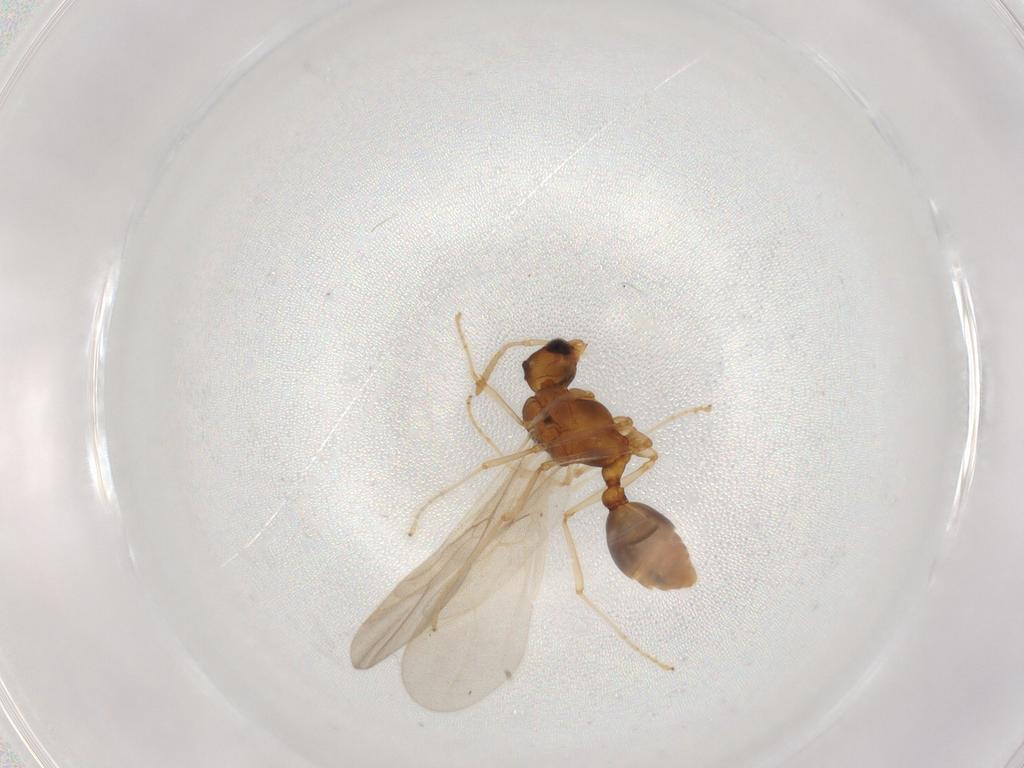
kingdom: Animalia
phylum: Arthropoda
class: Insecta
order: Hymenoptera
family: Formicidae
